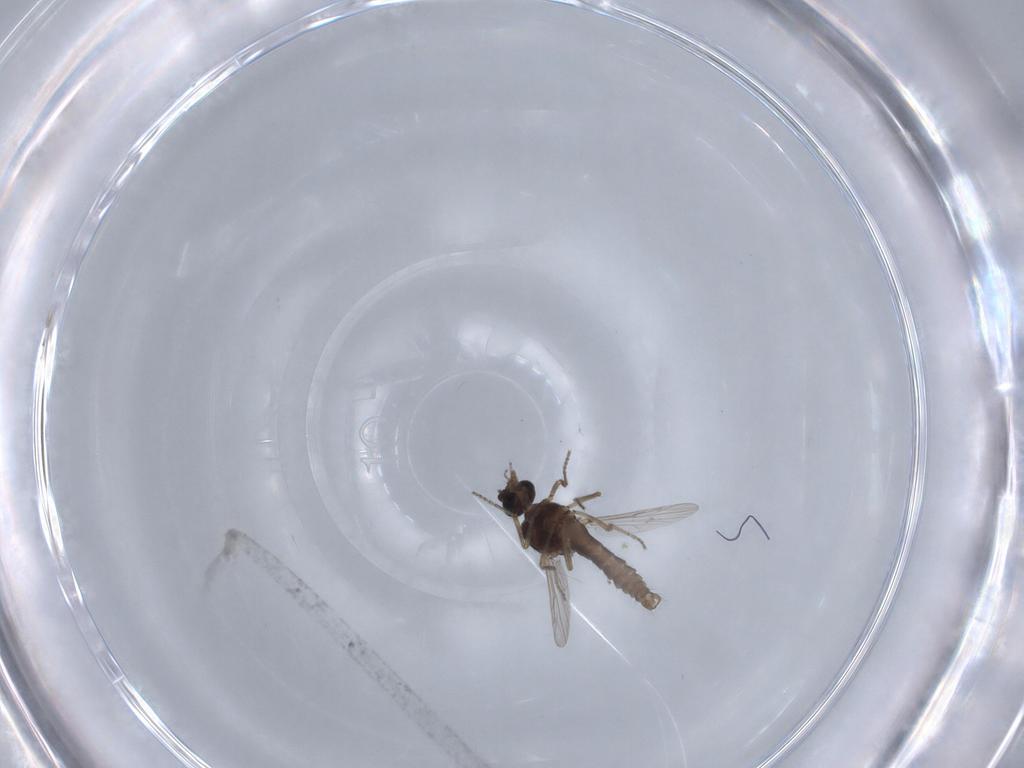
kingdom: Animalia
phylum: Arthropoda
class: Insecta
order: Diptera
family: Ceratopogonidae
